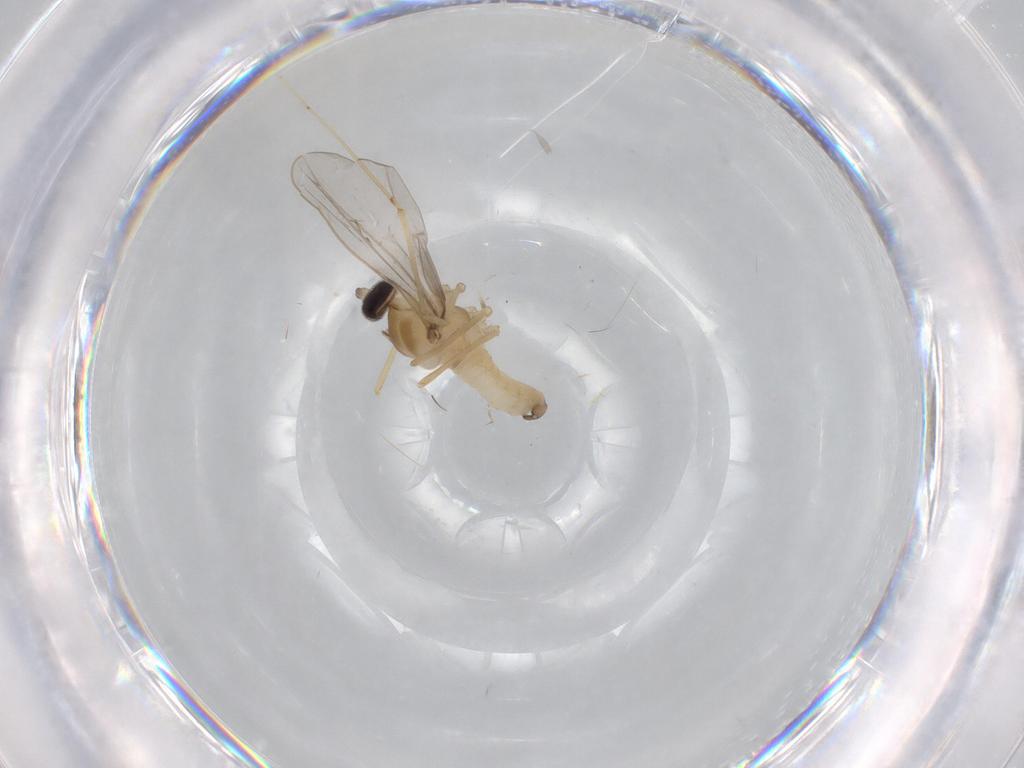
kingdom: Animalia
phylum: Arthropoda
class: Insecta
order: Diptera
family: Cecidomyiidae
